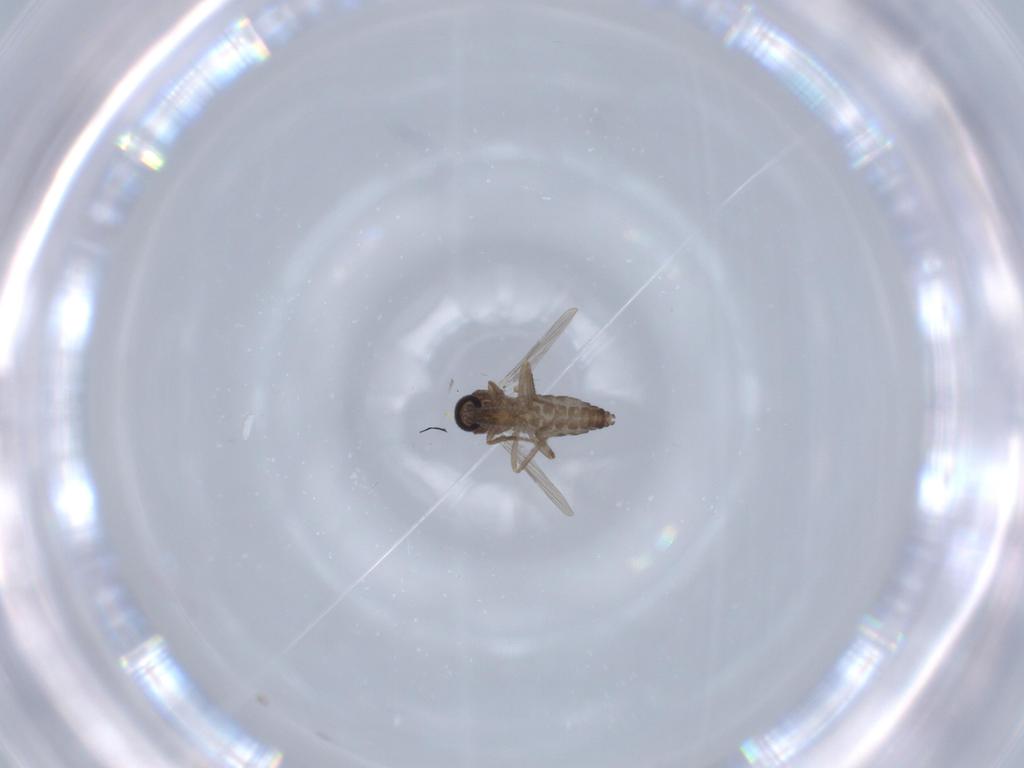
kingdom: Animalia
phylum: Arthropoda
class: Insecta
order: Diptera
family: Ceratopogonidae
